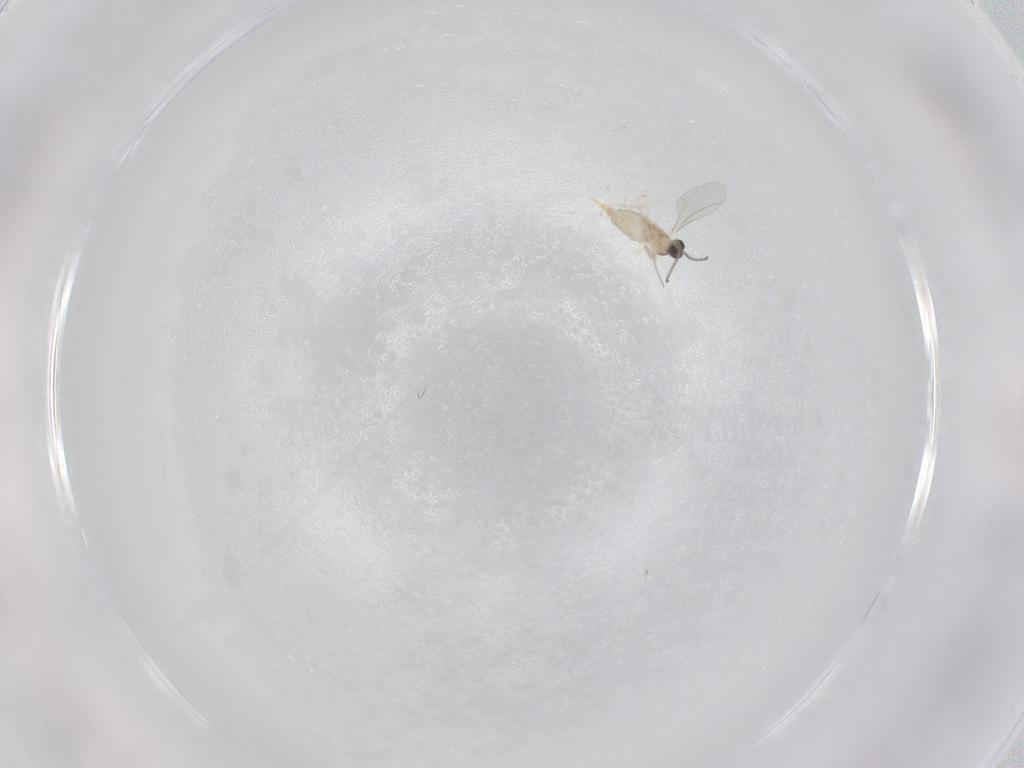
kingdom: Animalia
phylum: Arthropoda
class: Insecta
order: Diptera
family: Cecidomyiidae
